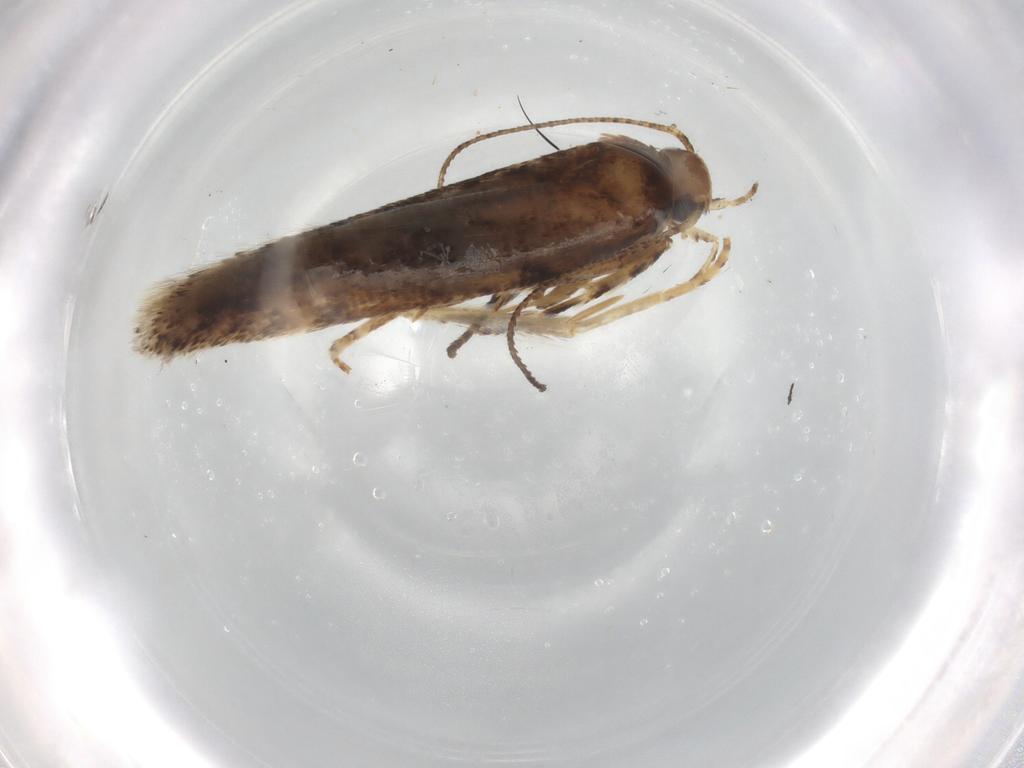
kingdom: Animalia
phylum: Arthropoda
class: Insecta
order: Lepidoptera
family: Gelechiidae
